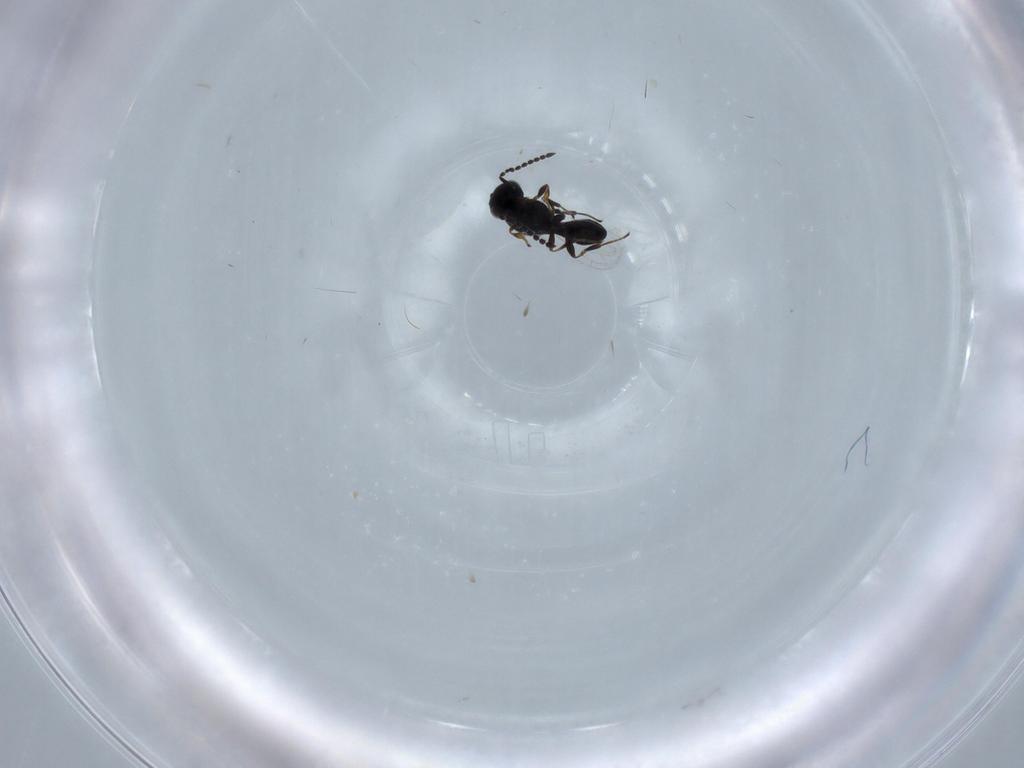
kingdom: Animalia
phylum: Arthropoda
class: Insecta
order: Hymenoptera
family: Platygastridae
